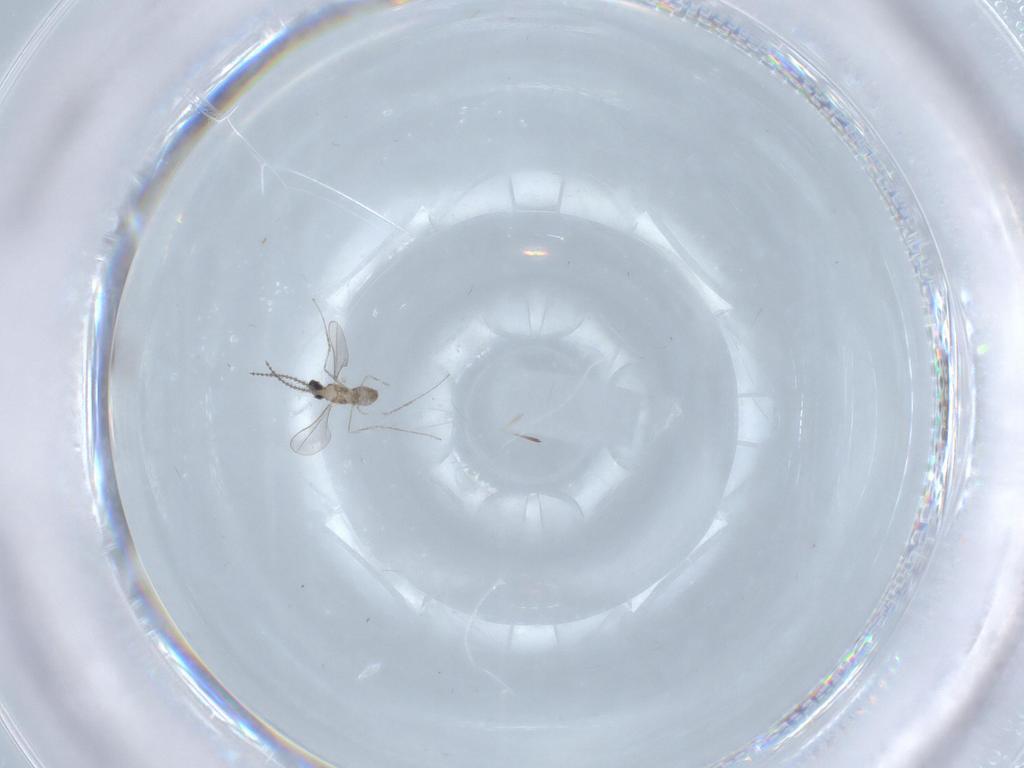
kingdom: Animalia
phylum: Arthropoda
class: Insecta
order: Diptera
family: Cecidomyiidae
